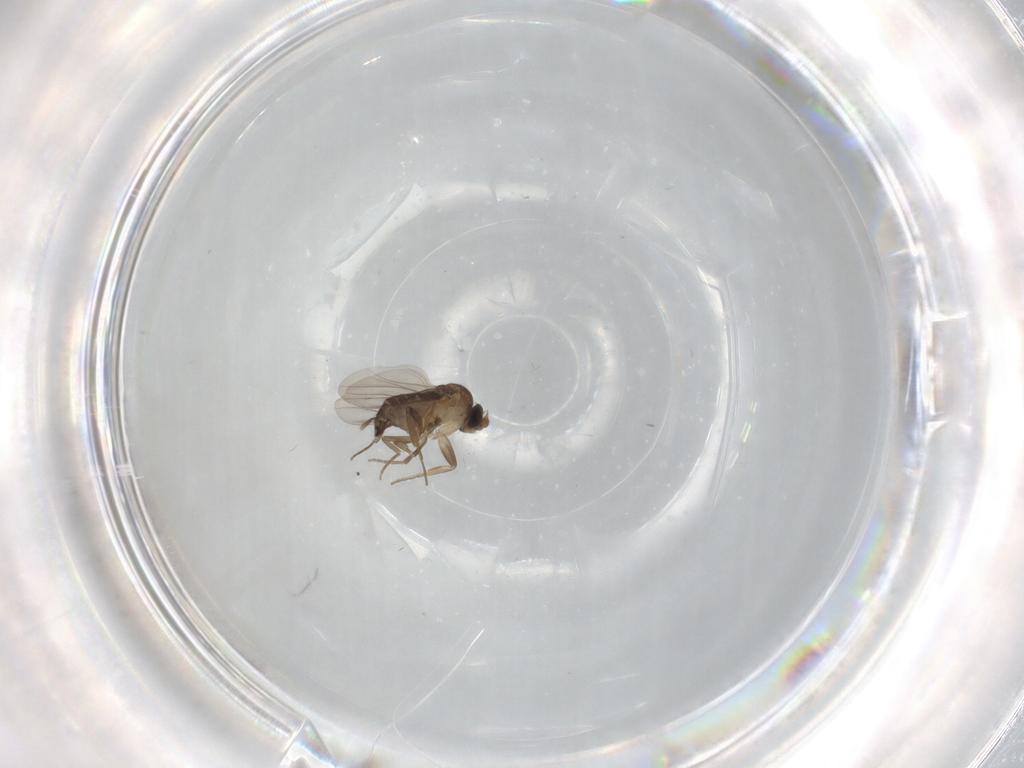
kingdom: Animalia
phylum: Arthropoda
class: Insecta
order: Diptera
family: Phoridae
